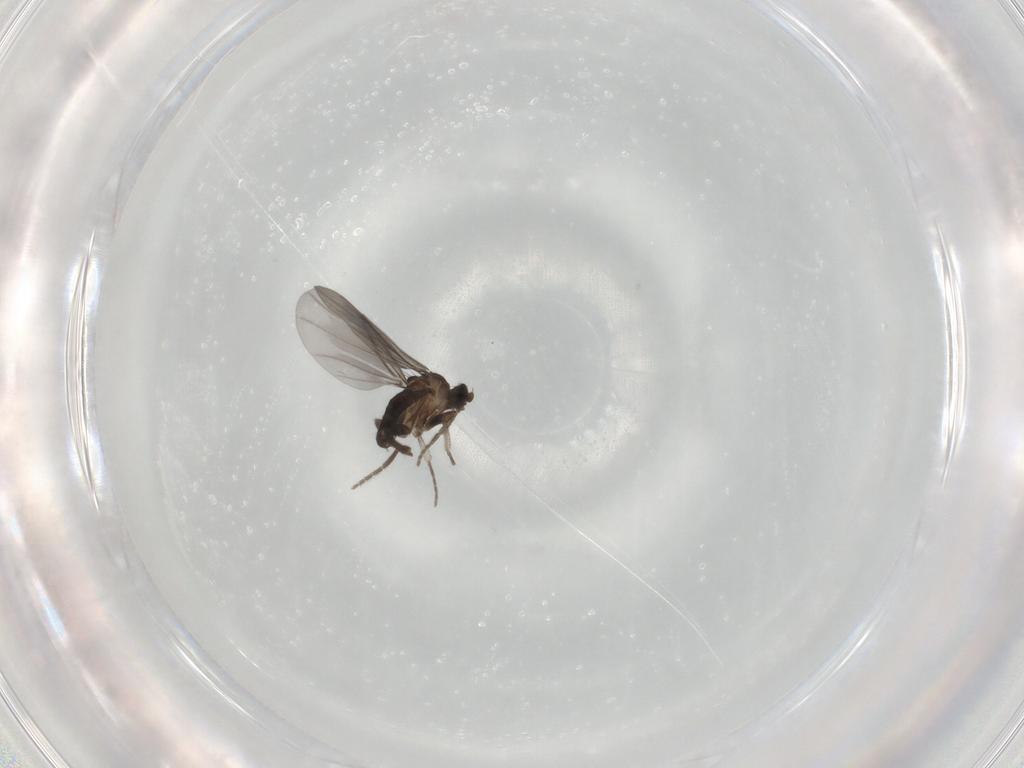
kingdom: Animalia
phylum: Arthropoda
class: Insecta
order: Diptera
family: Phoridae
